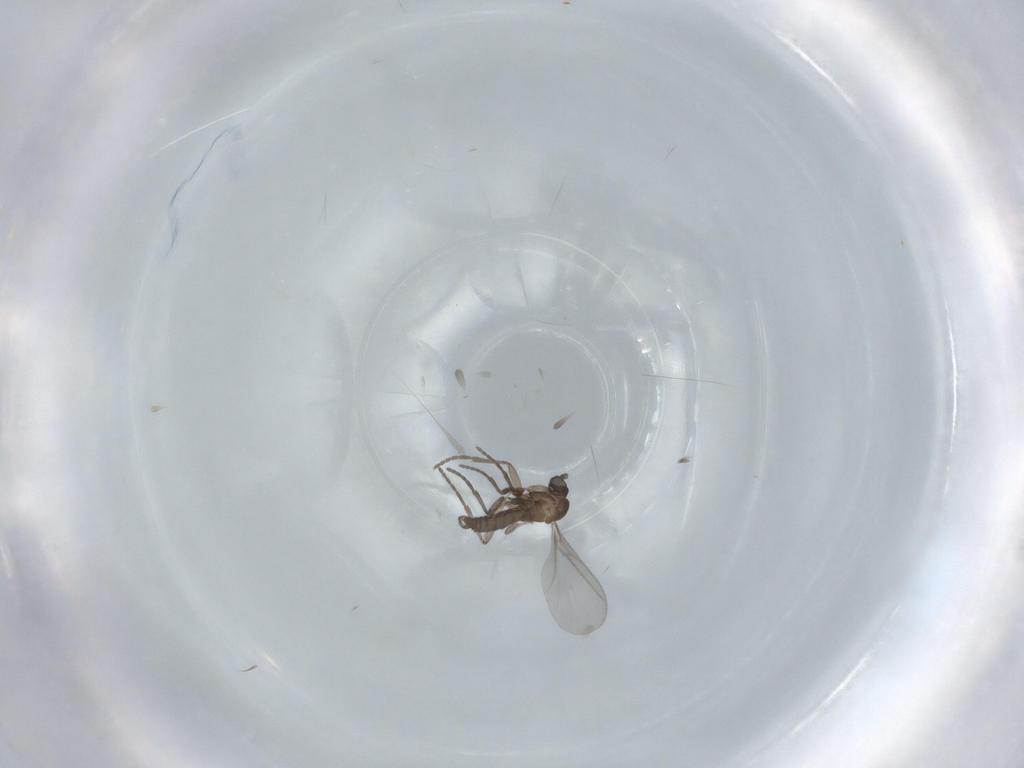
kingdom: Animalia
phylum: Arthropoda
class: Insecta
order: Diptera
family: Sciaridae
